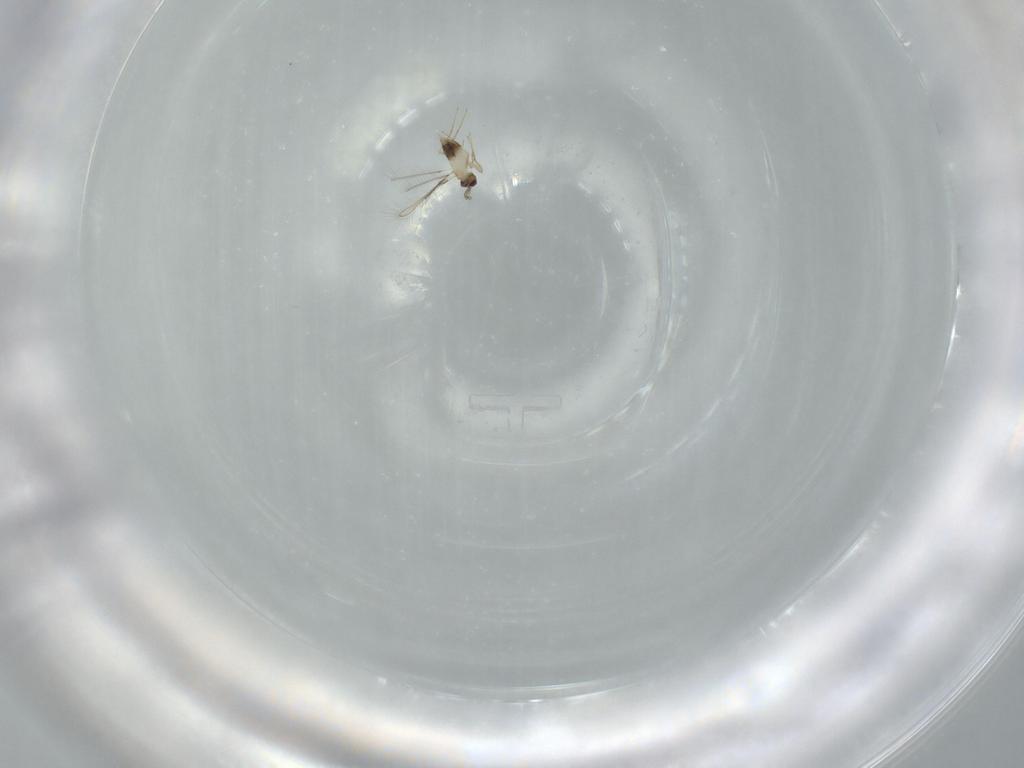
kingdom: Animalia
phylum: Arthropoda
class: Insecta
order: Hymenoptera
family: Mymaridae
